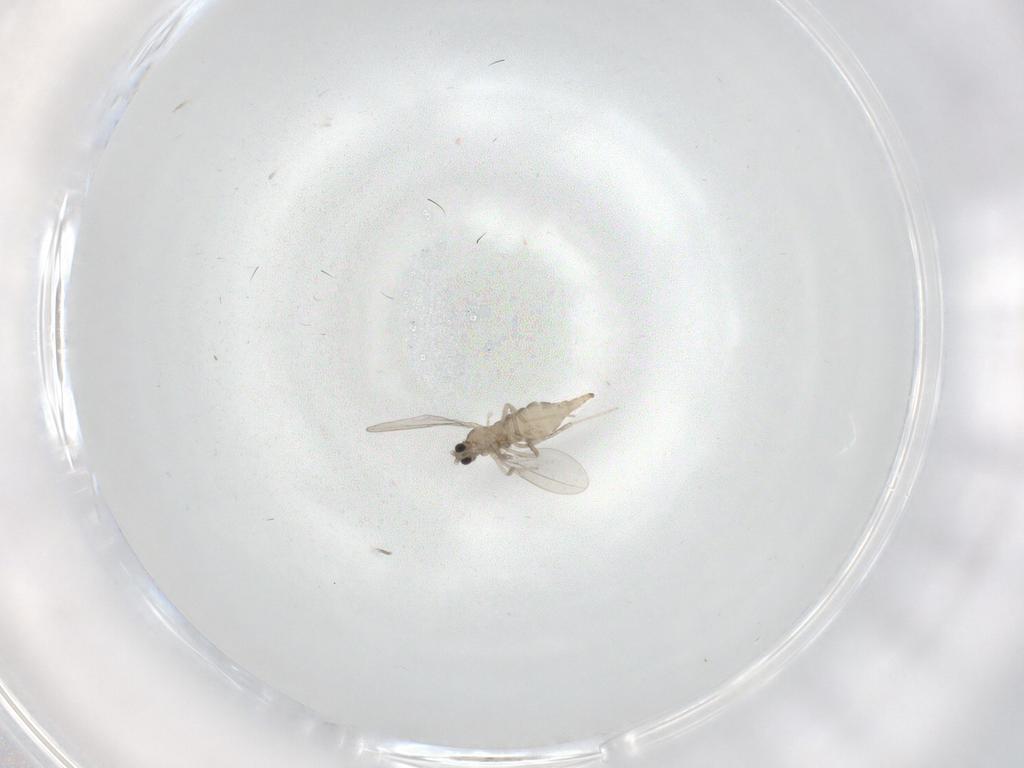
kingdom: Animalia
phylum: Arthropoda
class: Insecta
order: Diptera
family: Cecidomyiidae
